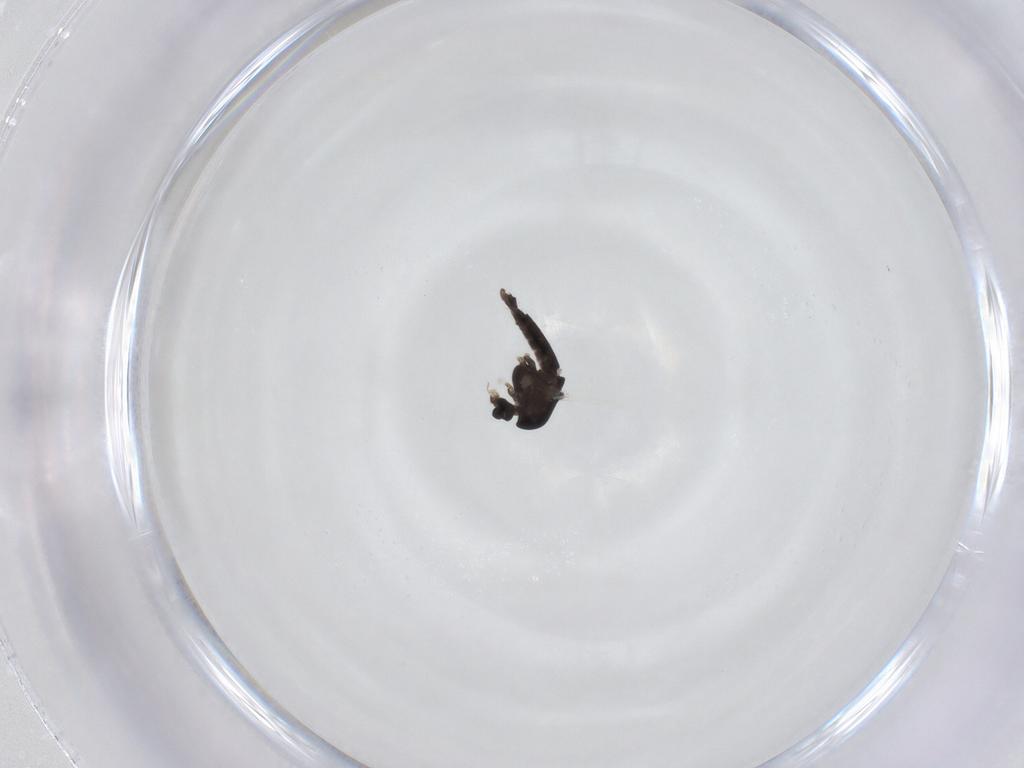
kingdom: Animalia
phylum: Arthropoda
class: Insecta
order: Diptera
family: Chironomidae
